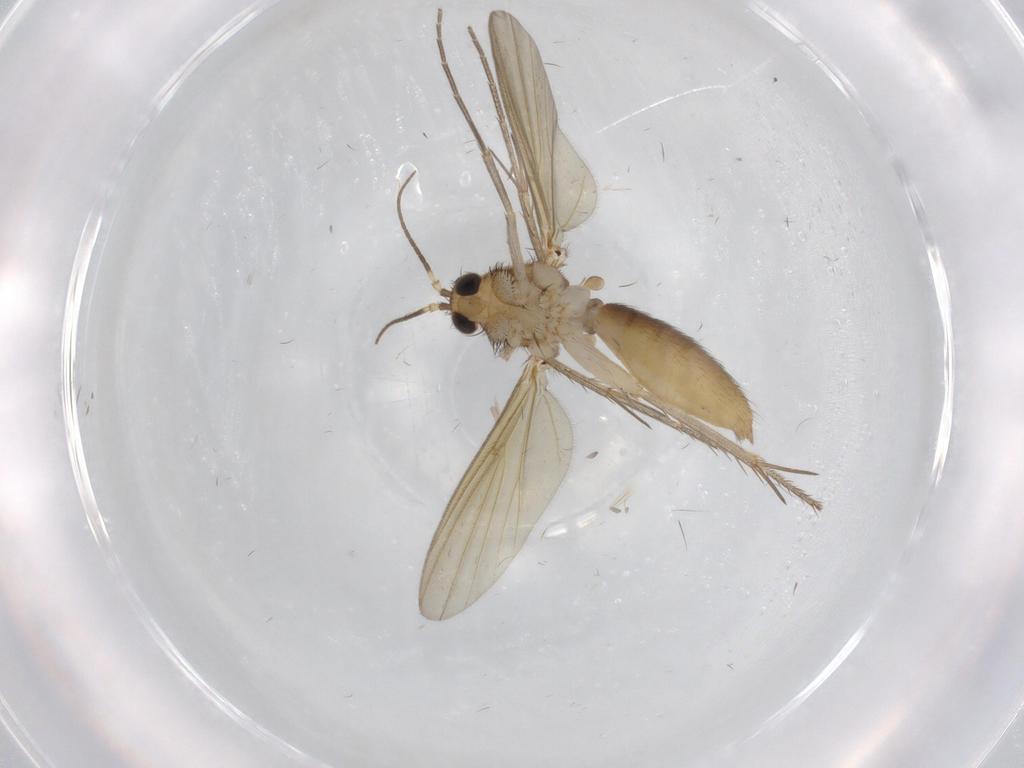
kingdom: Animalia
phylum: Arthropoda
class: Insecta
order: Diptera
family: Mycetophilidae
